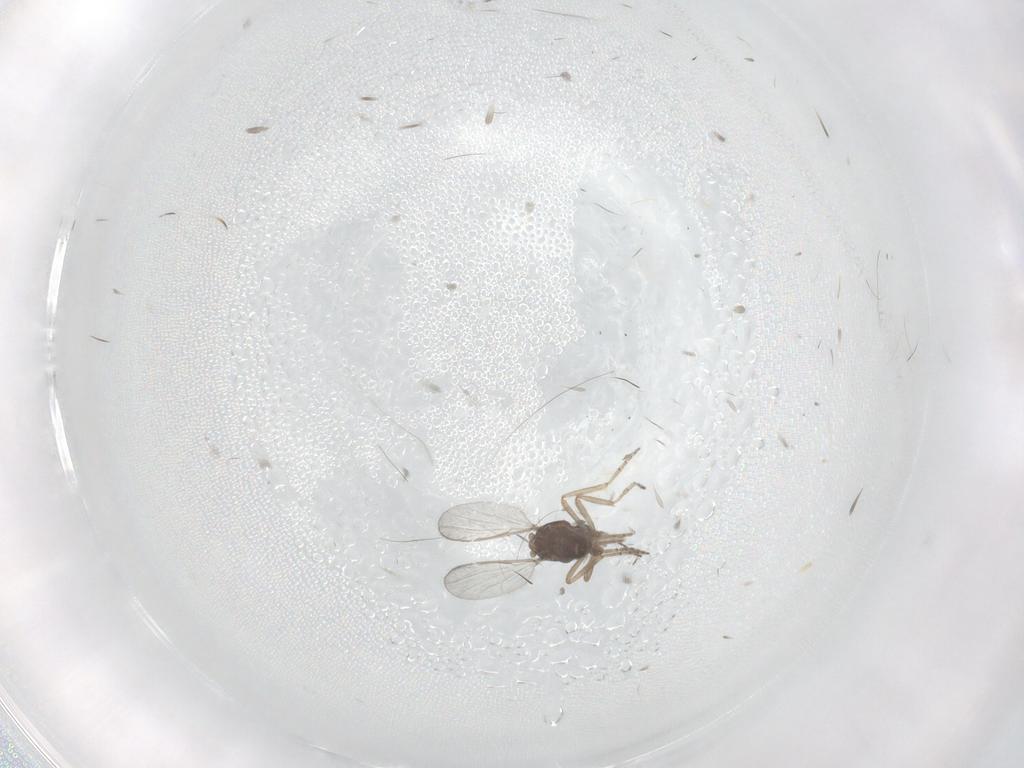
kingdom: Animalia
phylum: Arthropoda
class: Insecta
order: Diptera
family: Ceratopogonidae
